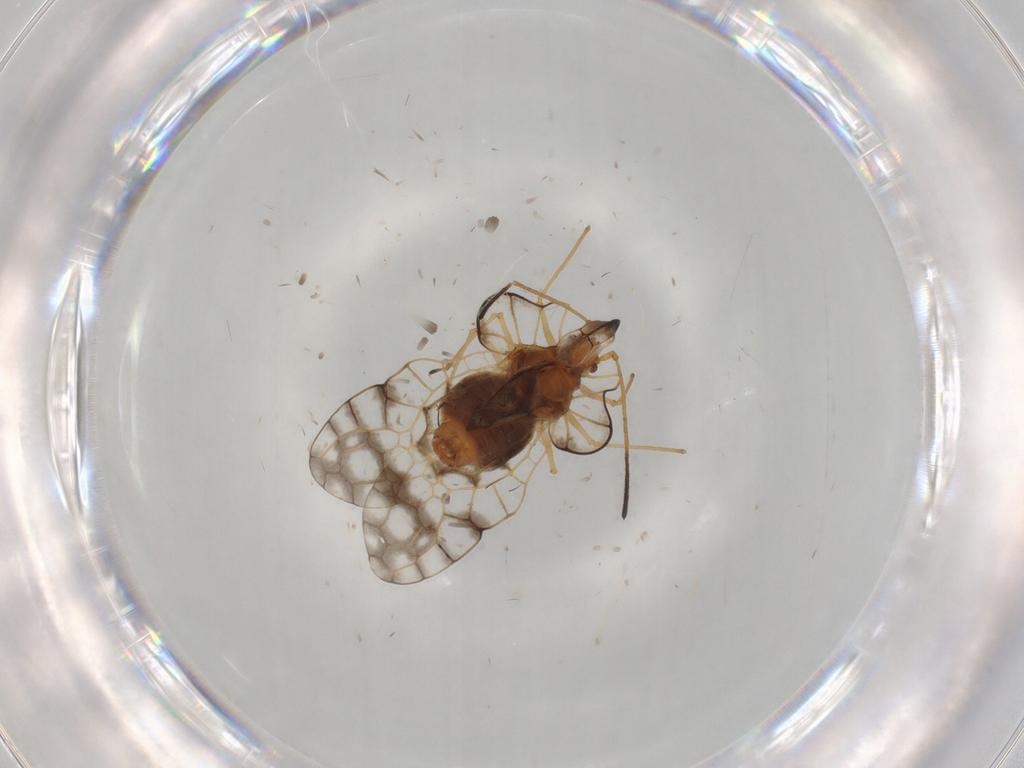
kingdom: Animalia
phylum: Arthropoda
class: Insecta
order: Hemiptera
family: Tingidae
